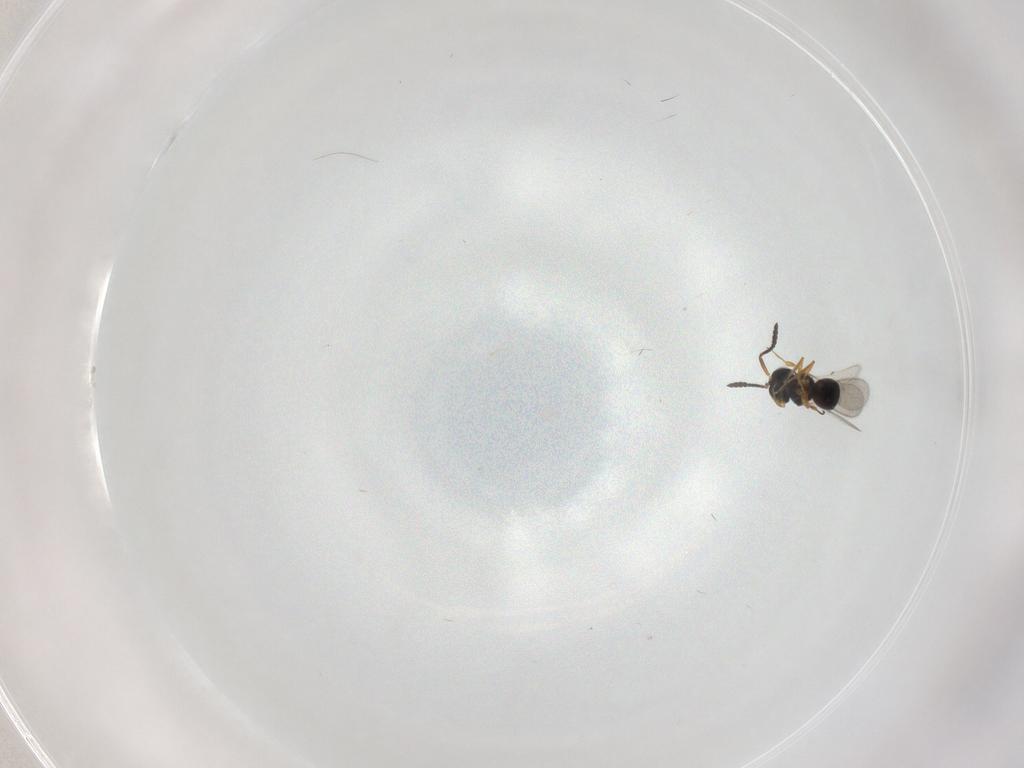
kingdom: Animalia
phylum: Arthropoda
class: Insecta
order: Hymenoptera
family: Scelionidae
